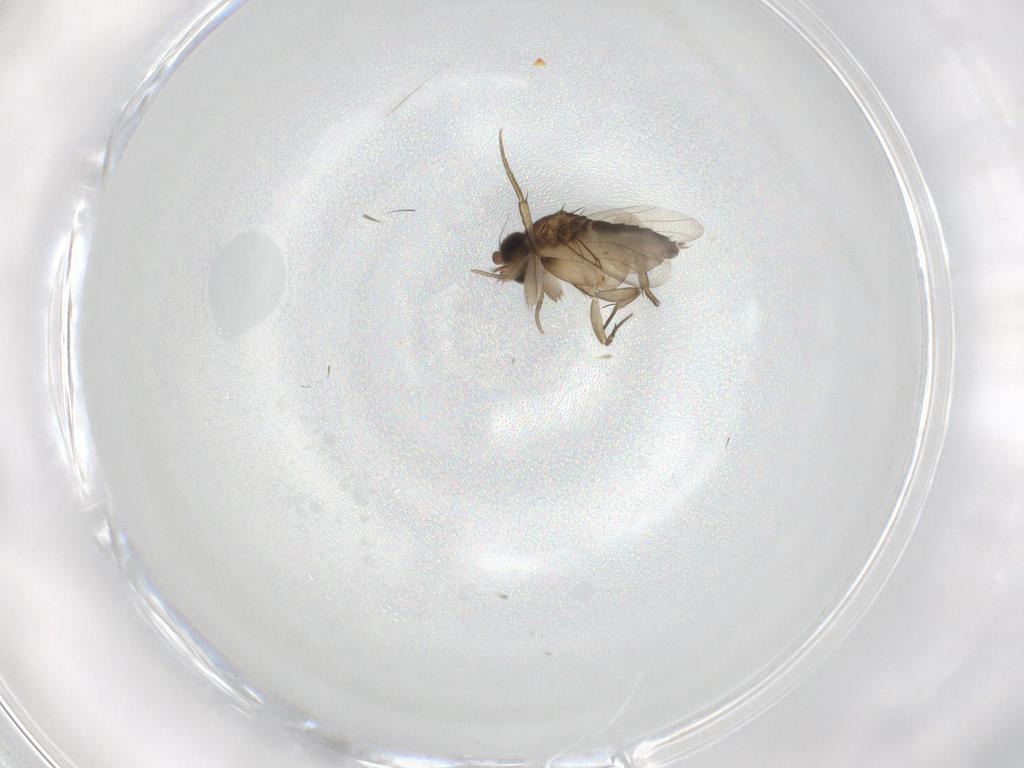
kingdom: Animalia
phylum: Arthropoda
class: Insecta
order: Diptera
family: Phoridae
